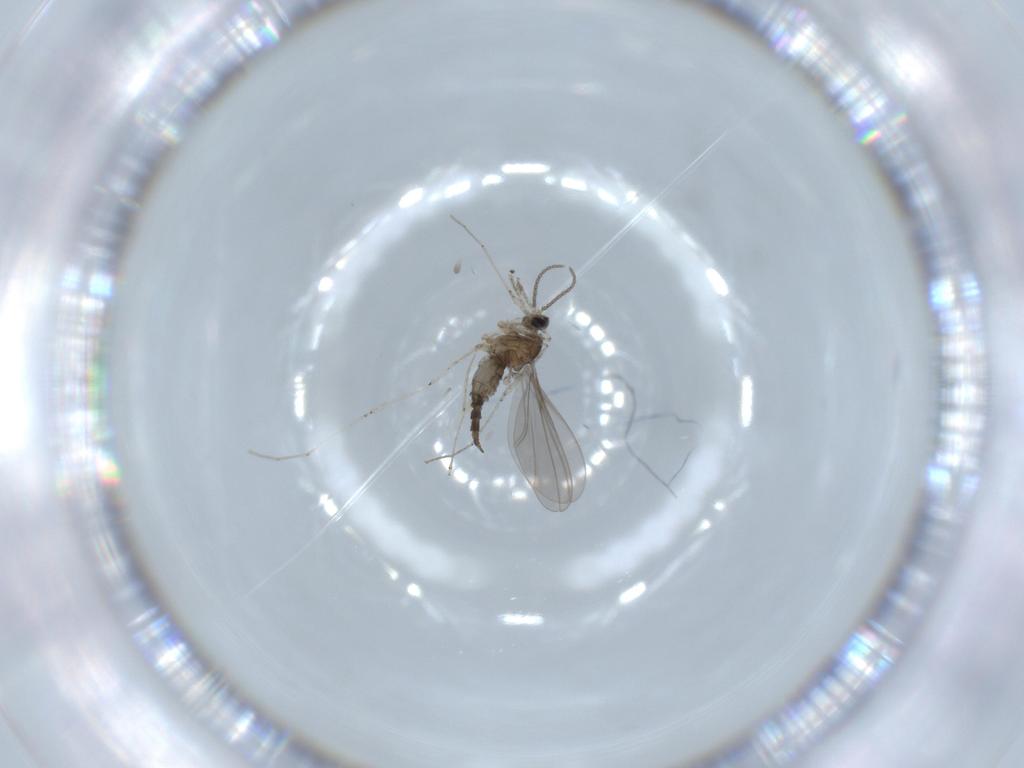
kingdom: Animalia
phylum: Arthropoda
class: Insecta
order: Diptera
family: Cecidomyiidae
